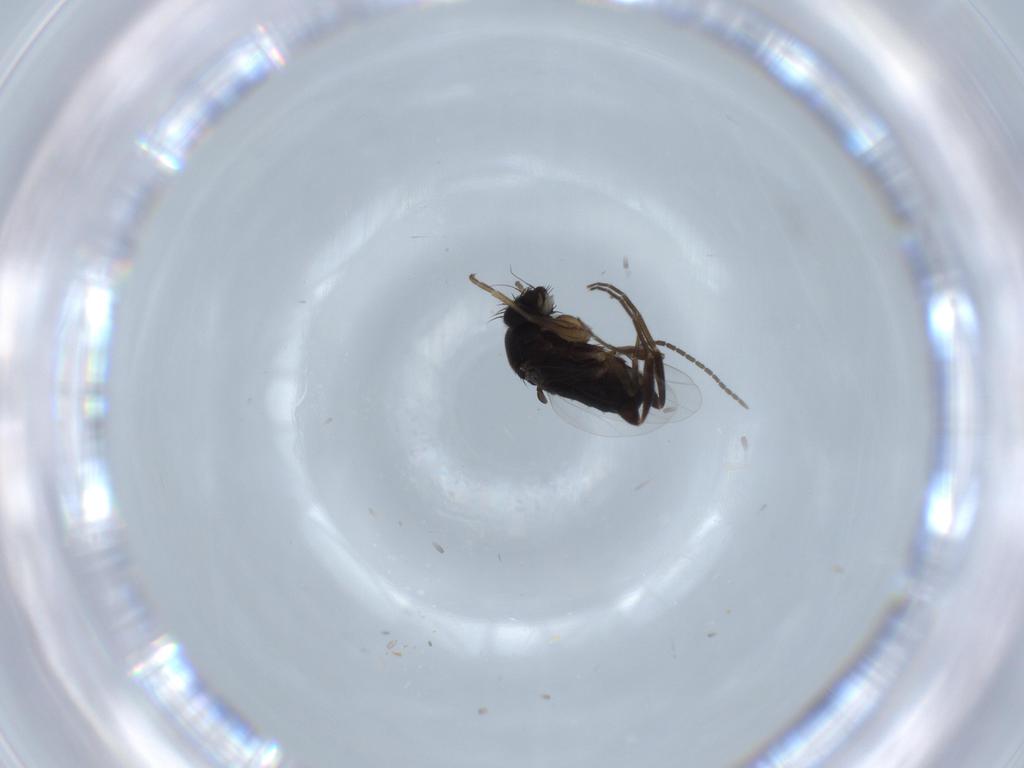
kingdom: Animalia
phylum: Arthropoda
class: Insecta
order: Diptera
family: Phoridae
